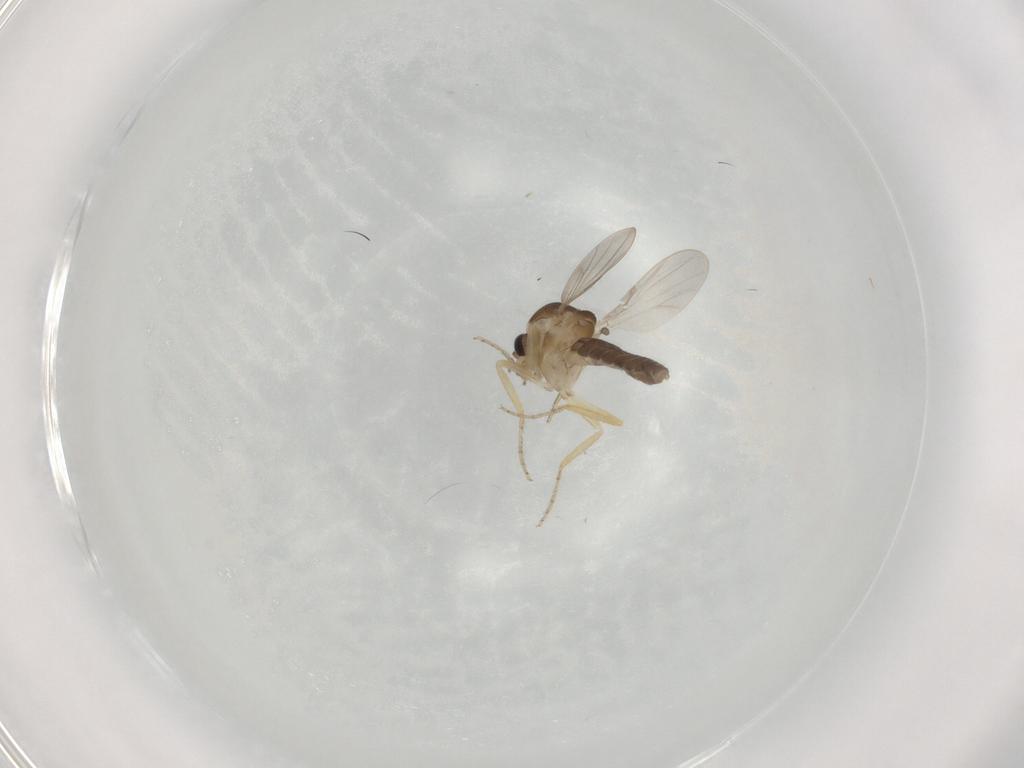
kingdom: Animalia
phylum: Arthropoda
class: Insecta
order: Diptera
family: Ceratopogonidae
